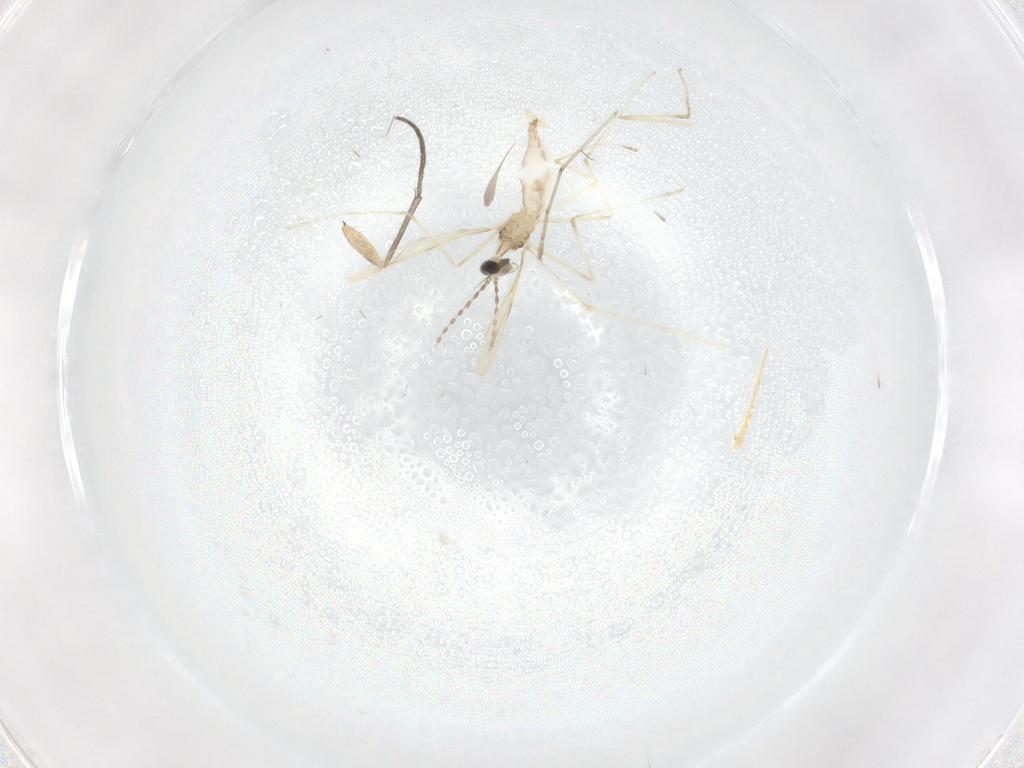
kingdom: Animalia
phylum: Arthropoda
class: Insecta
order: Diptera
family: Cecidomyiidae
